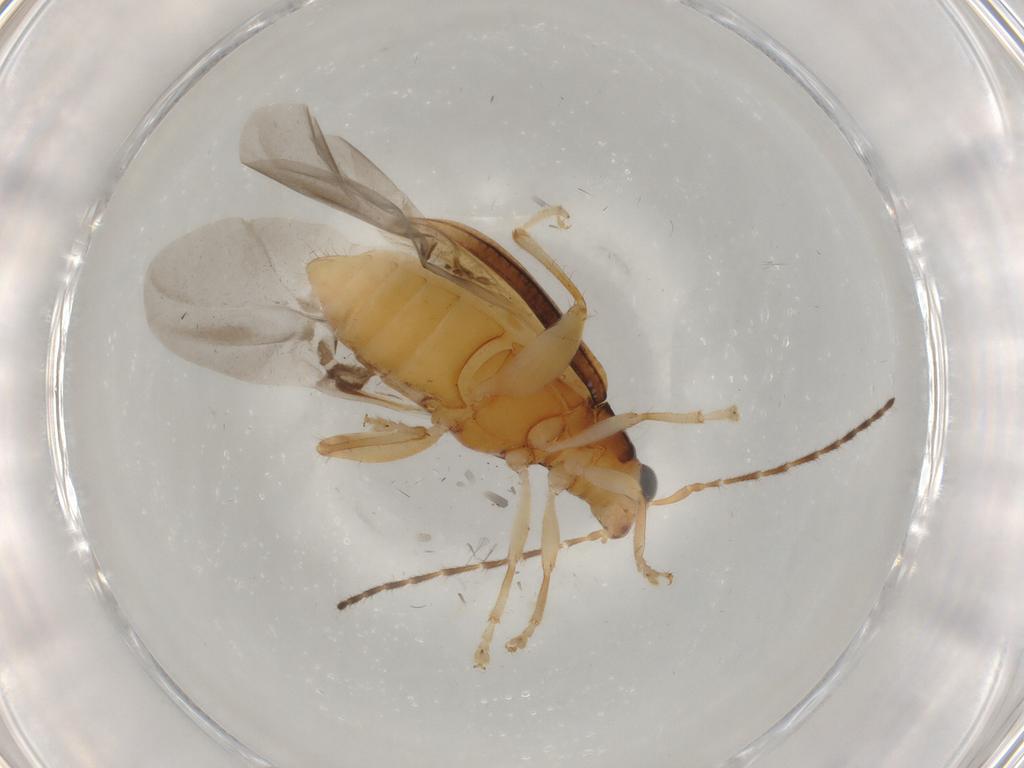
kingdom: Animalia
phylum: Arthropoda
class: Insecta
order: Coleoptera
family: Chrysomelidae
